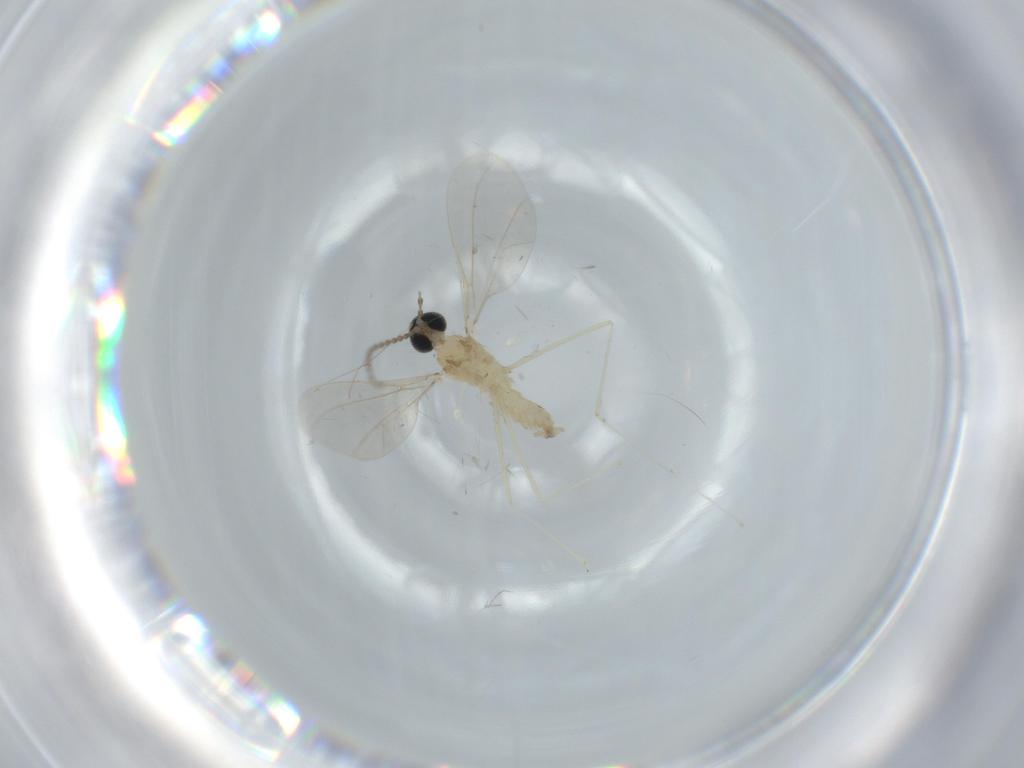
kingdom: Animalia
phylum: Arthropoda
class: Insecta
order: Diptera
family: Cecidomyiidae
